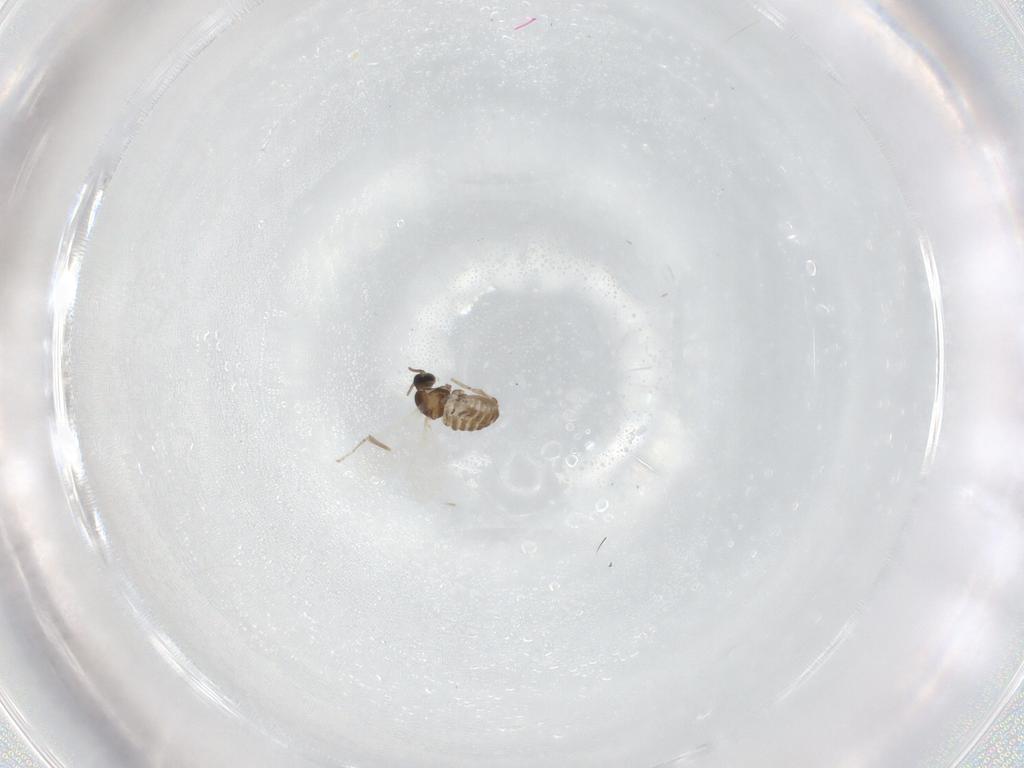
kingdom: Animalia
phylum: Arthropoda
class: Insecta
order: Diptera
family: Cecidomyiidae
